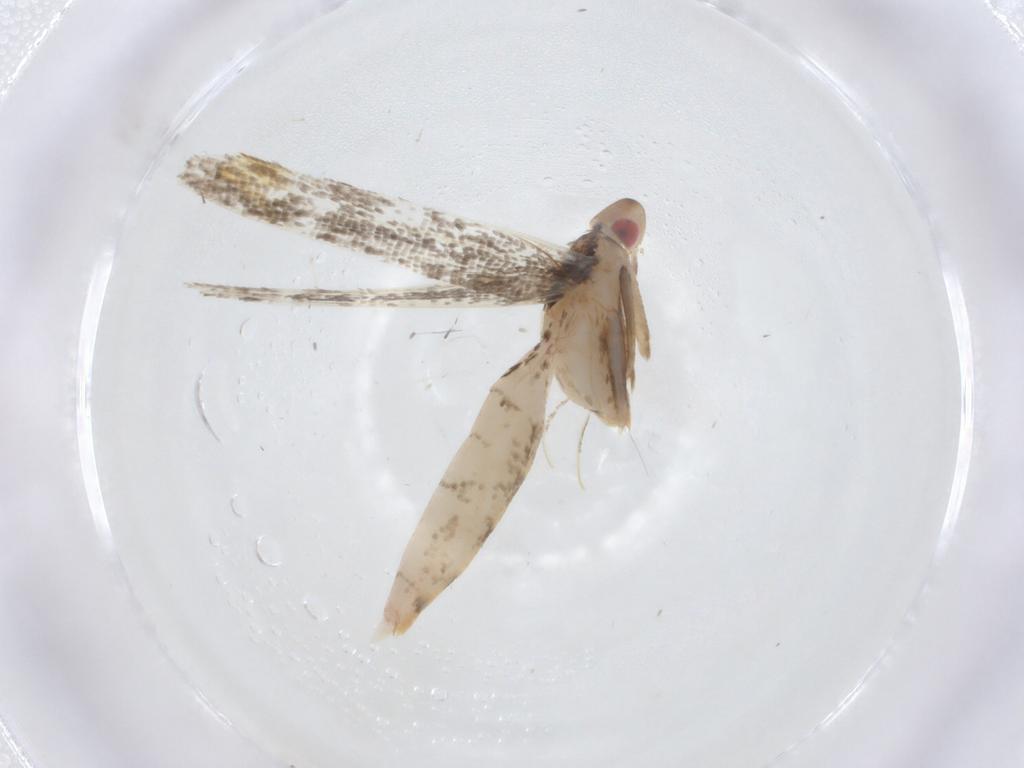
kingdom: Animalia
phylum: Arthropoda
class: Insecta
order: Lepidoptera
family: Cosmopterigidae
